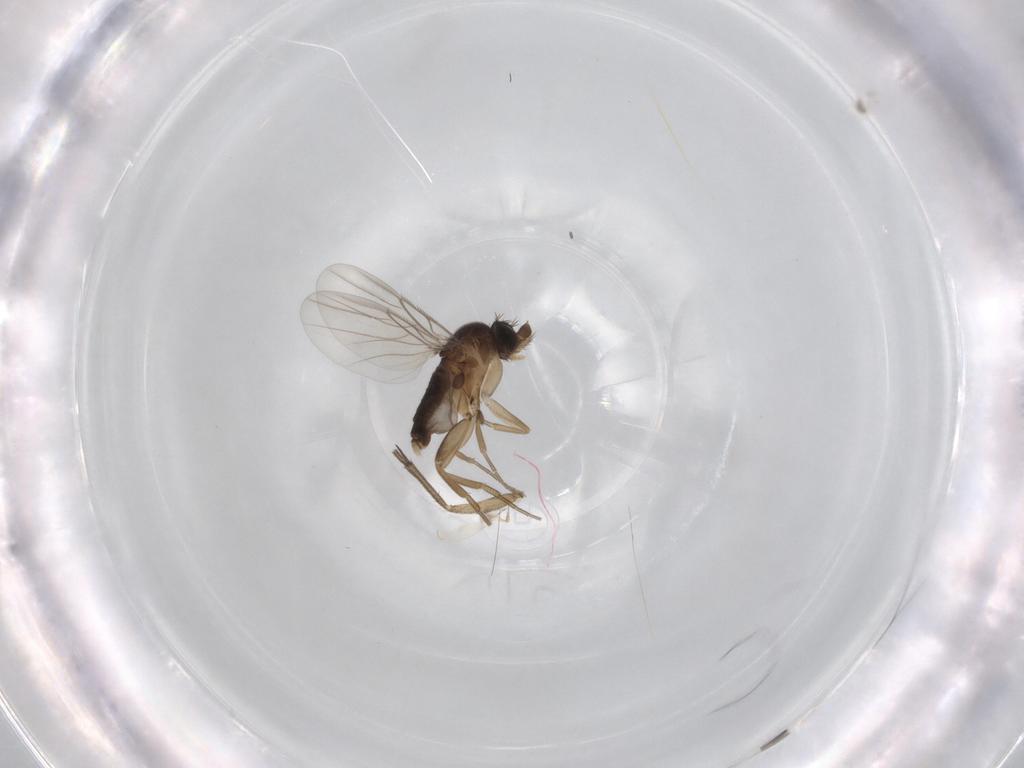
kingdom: Animalia
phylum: Arthropoda
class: Insecta
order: Diptera
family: Phoridae
